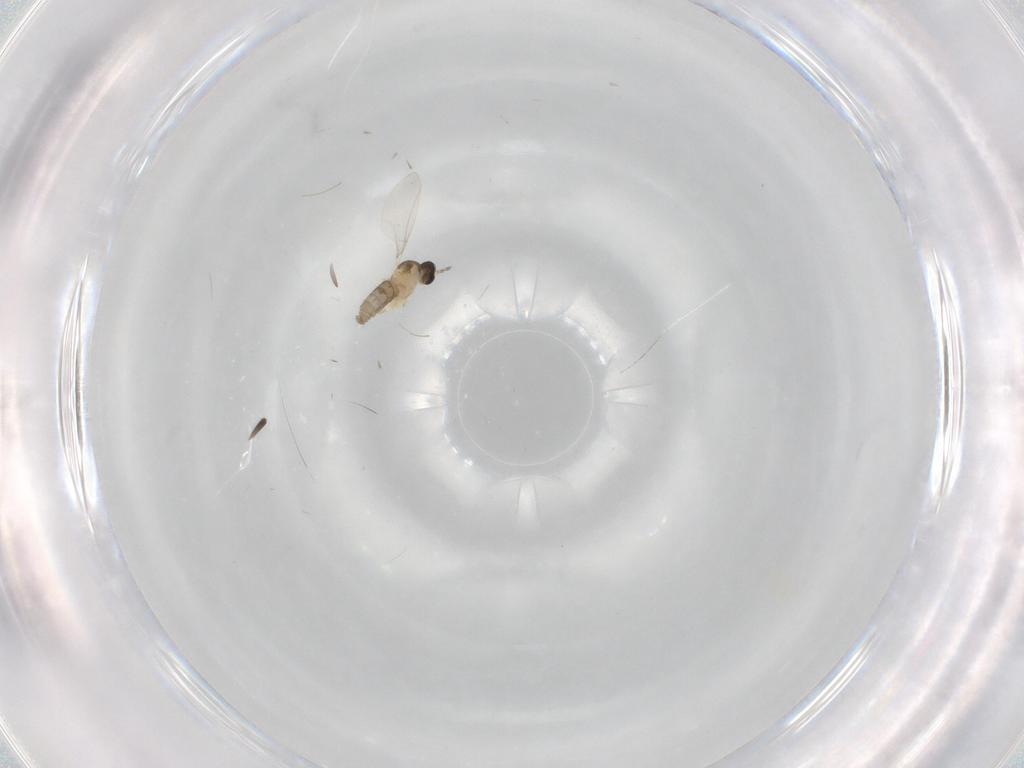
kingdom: Animalia
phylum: Arthropoda
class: Insecta
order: Diptera
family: Cecidomyiidae
